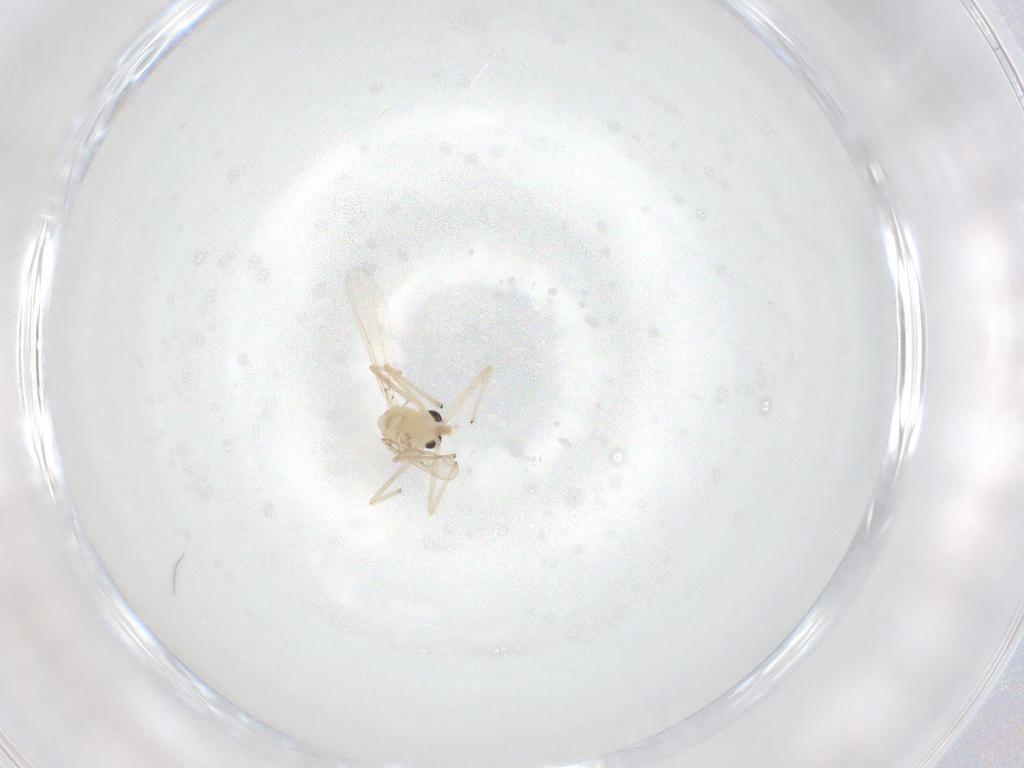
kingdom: Animalia
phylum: Arthropoda
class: Insecta
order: Diptera
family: Chironomidae
